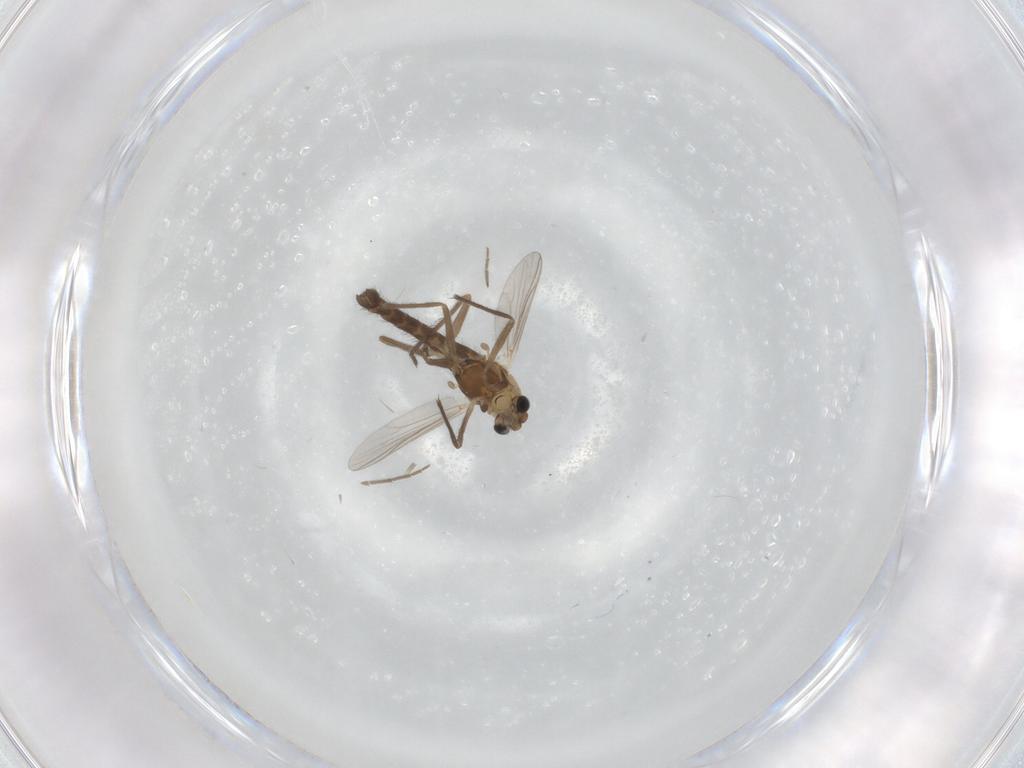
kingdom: Animalia
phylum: Arthropoda
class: Insecta
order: Diptera
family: Chironomidae
